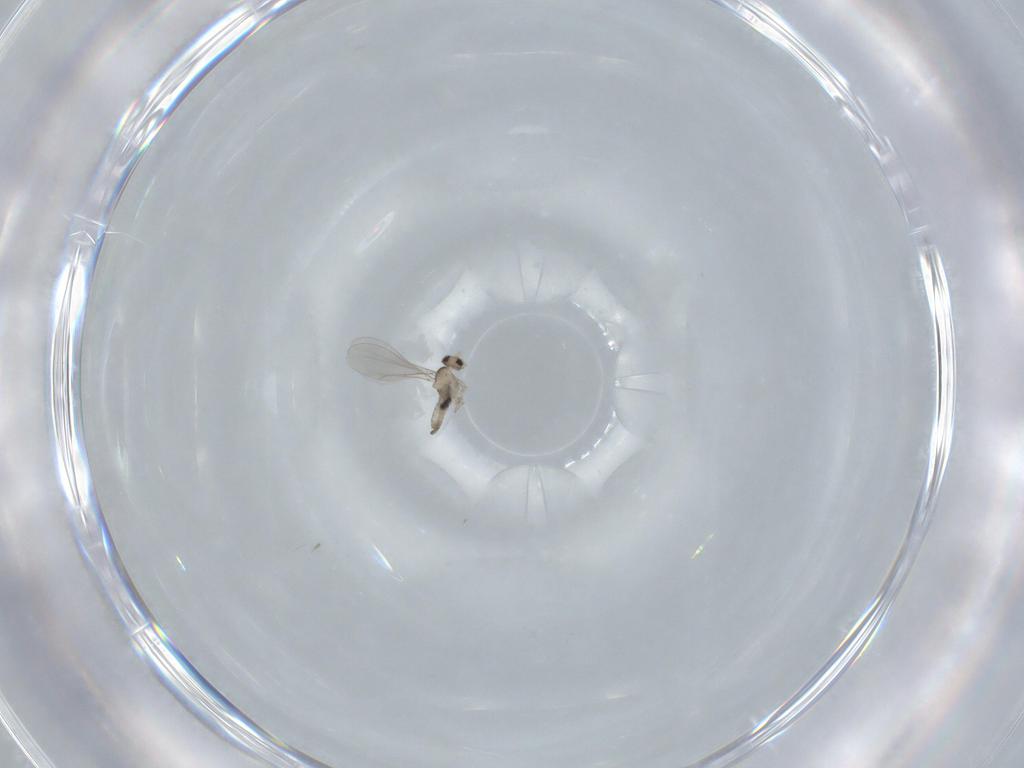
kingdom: Animalia
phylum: Arthropoda
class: Insecta
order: Diptera
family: Cecidomyiidae
